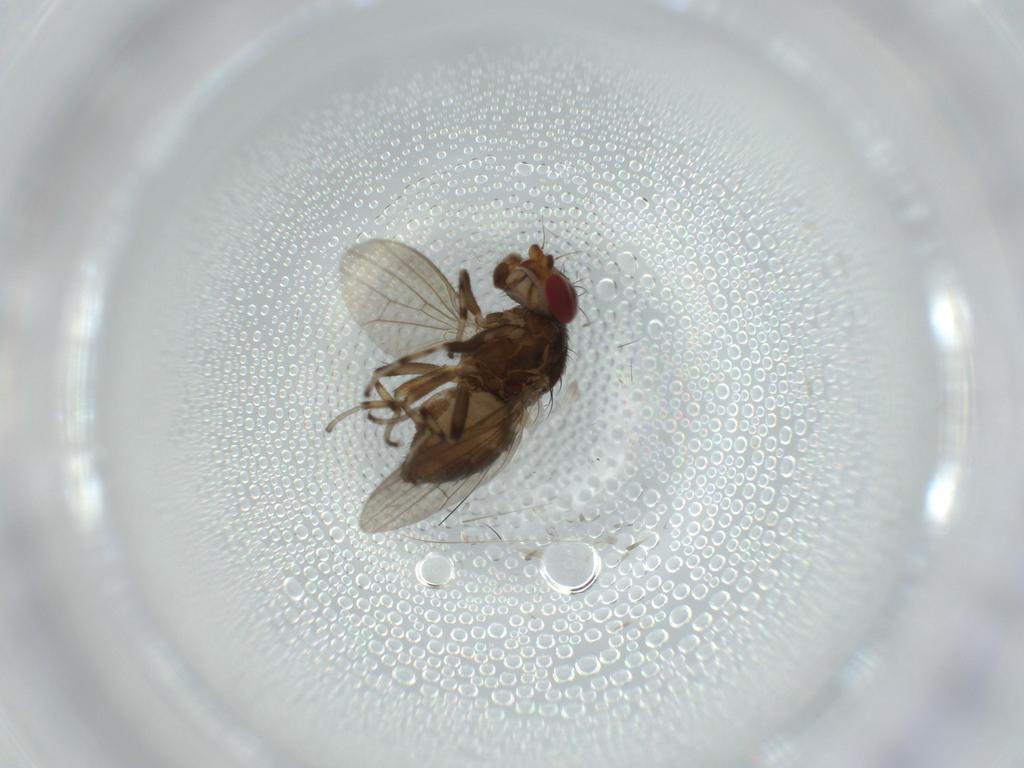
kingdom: Animalia
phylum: Arthropoda
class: Insecta
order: Diptera
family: Heleomyzidae
